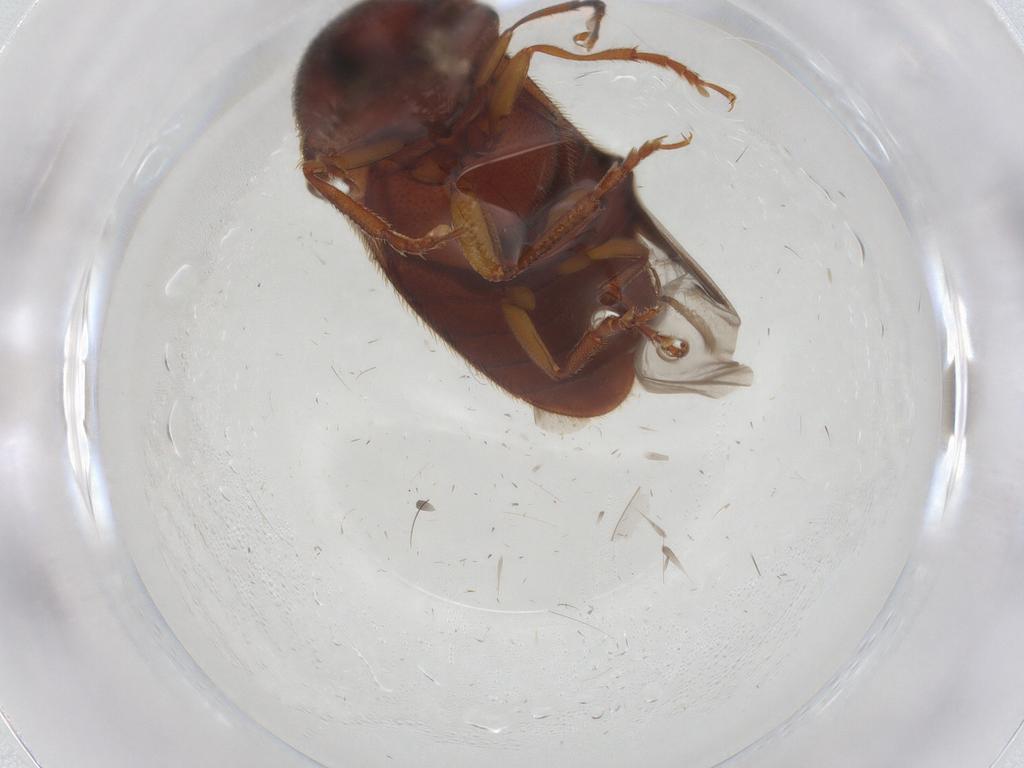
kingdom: Animalia
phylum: Arthropoda
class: Insecta
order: Coleoptera
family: Elateridae
